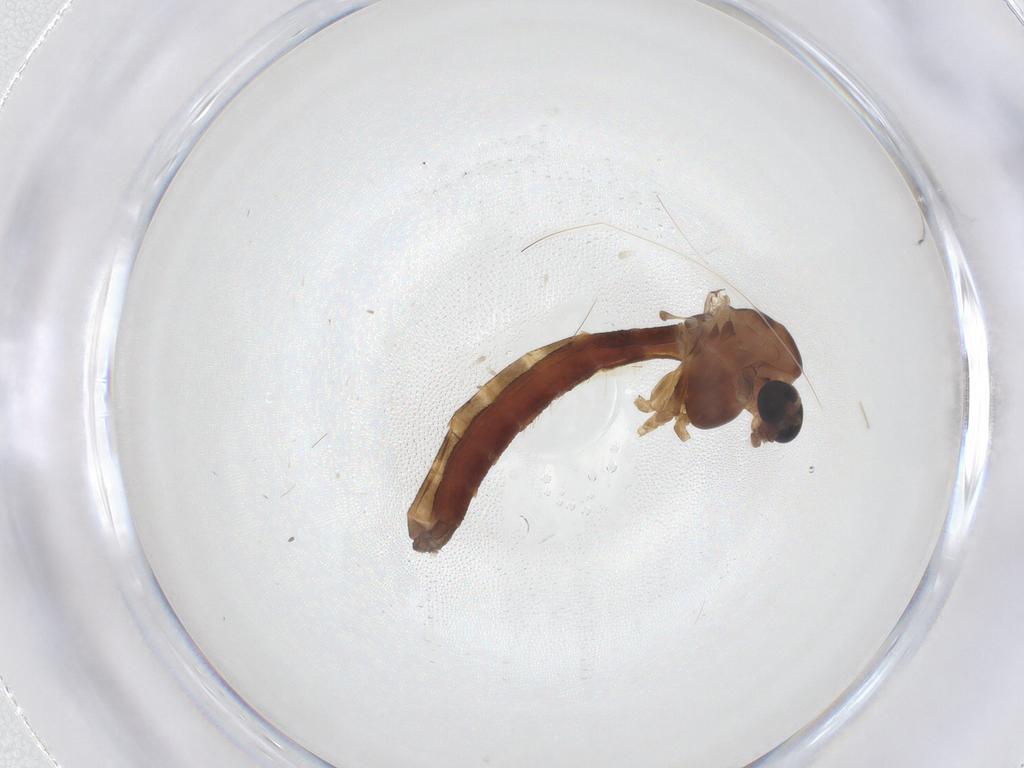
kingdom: Animalia
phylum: Arthropoda
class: Insecta
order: Diptera
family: Chironomidae
